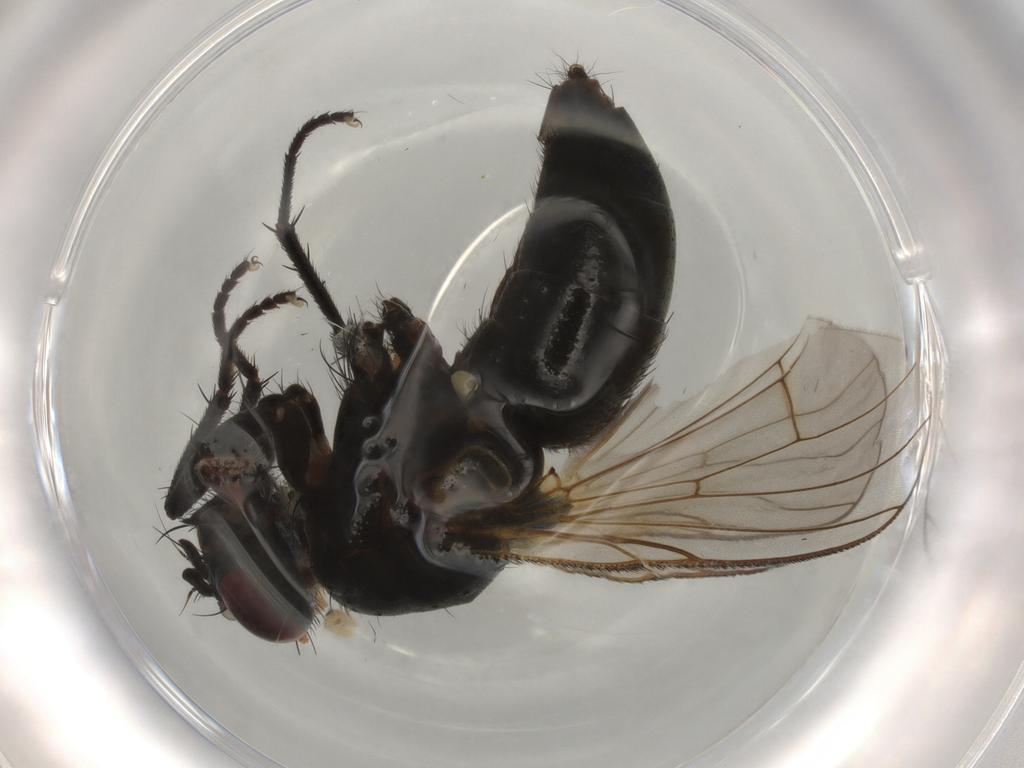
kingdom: Animalia
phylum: Arthropoda
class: Insecta
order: Diptera
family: Muscidae
